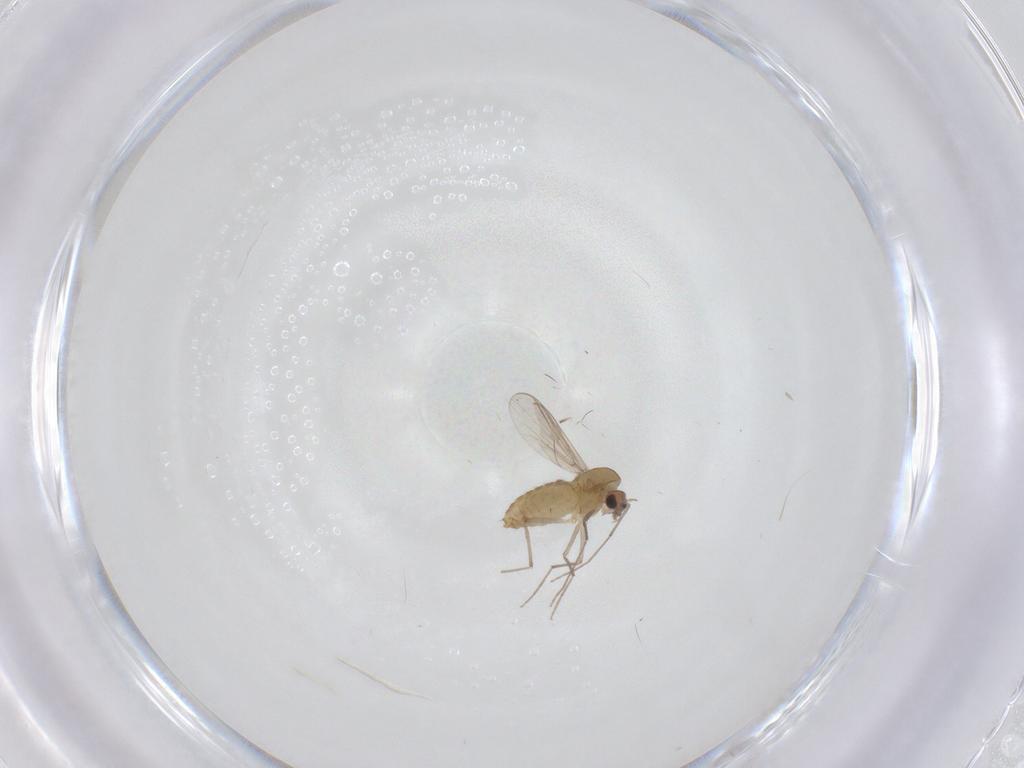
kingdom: Animalia
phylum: Arthropoda
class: Insecta
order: Diptera
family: Chironomidae
